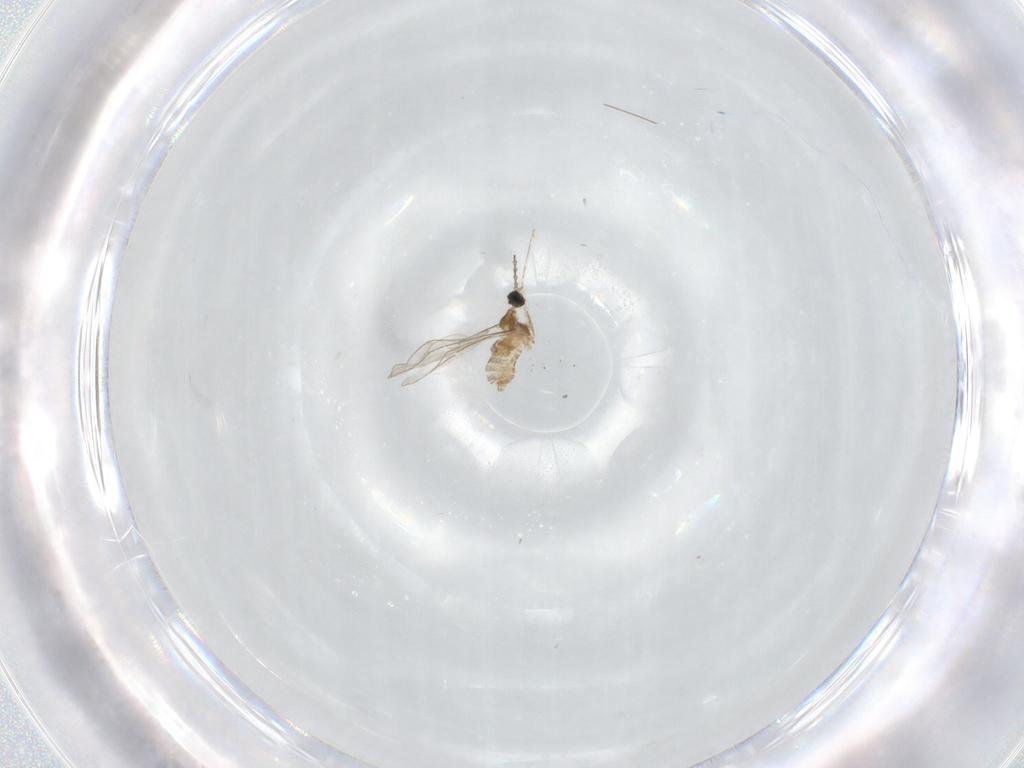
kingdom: Animalia
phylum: Arthropoda
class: Insecta
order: Diptera
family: Cecidomyiidae
